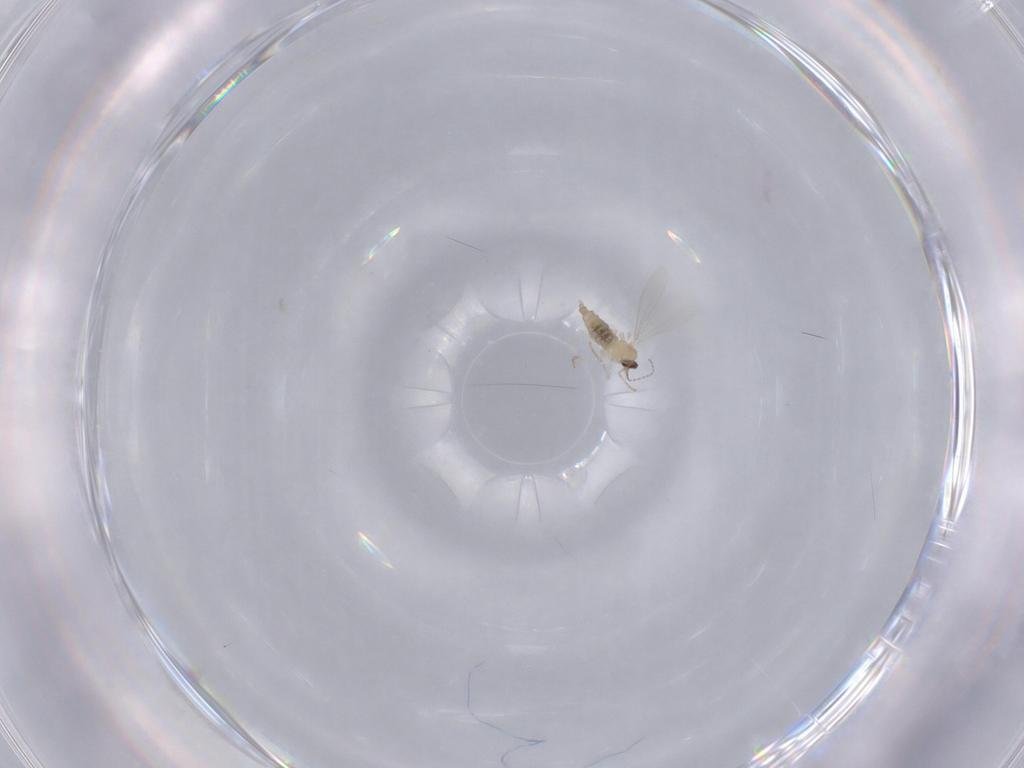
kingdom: Animalia
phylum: Arthropoda
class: Insecta
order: Diptera
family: Cecidomyiidae
